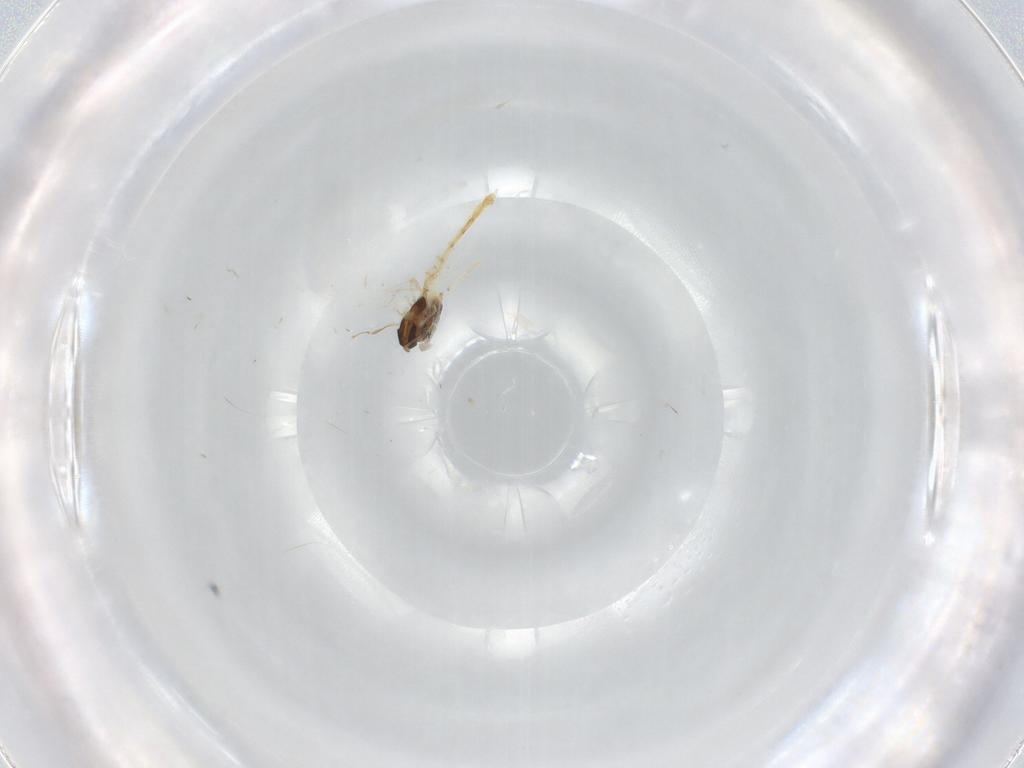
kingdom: Animalia
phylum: Arthropoda
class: Insecta
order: Diptera
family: Chironomidae
